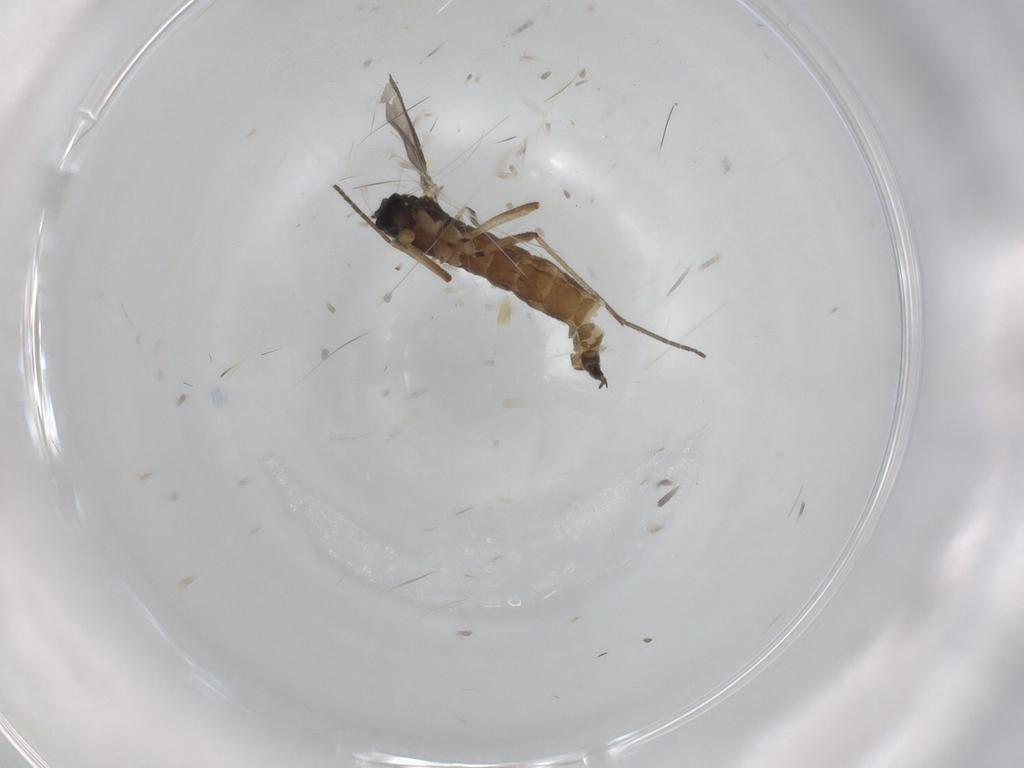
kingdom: Animalia
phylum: Arthropoda
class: Insecta
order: Diptera
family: Sciaridae
